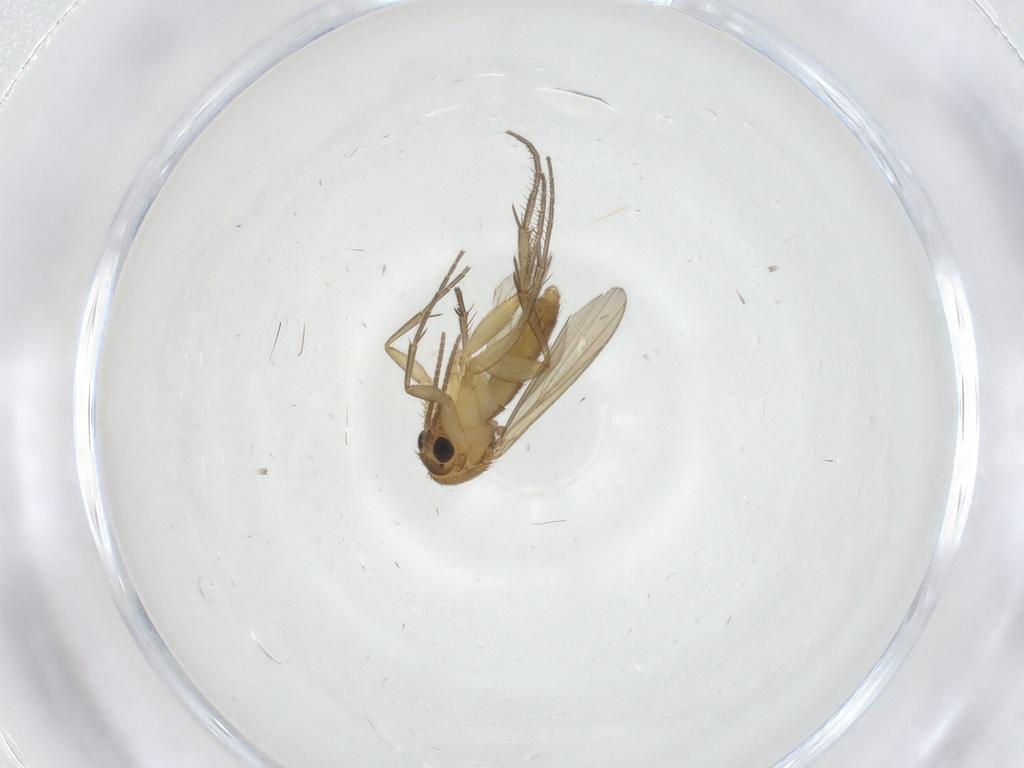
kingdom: Animalia
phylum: Arthropoda
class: Insecta
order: Diptera
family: Mycetophilidae
